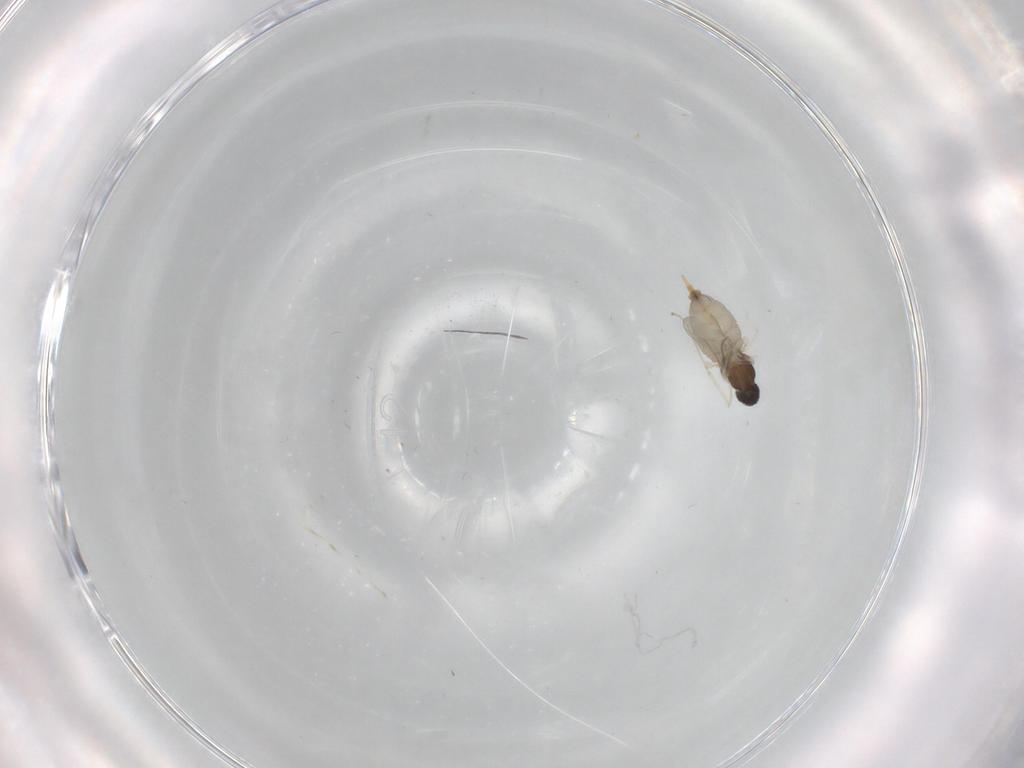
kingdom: Animalia
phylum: Arthropoda
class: Insecta
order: Diptera
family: Cecidomyiidae
